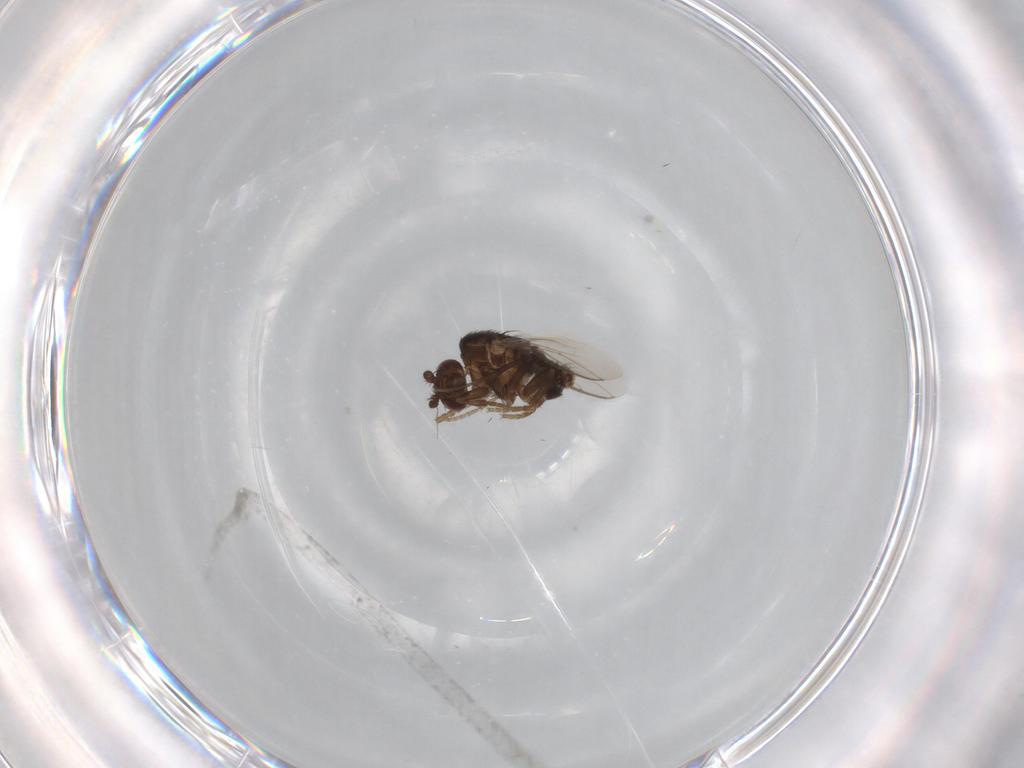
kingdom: Animalia
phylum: Arthropoda
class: Insecta
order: Diptera
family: Sphaeroceridae
